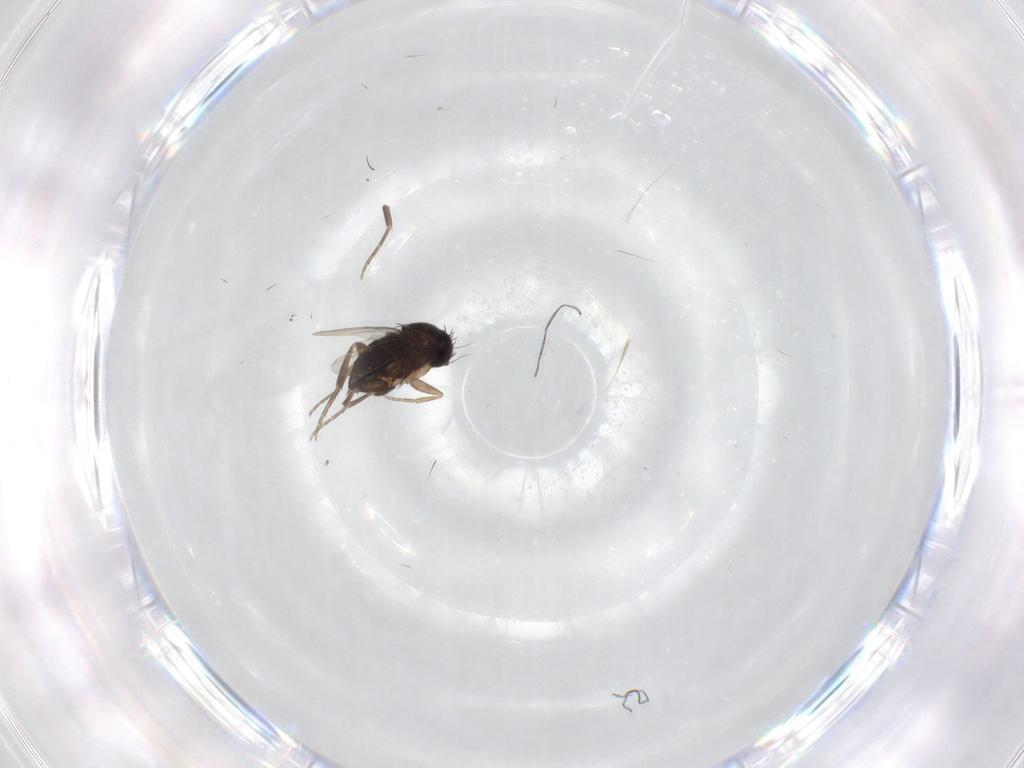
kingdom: Animalia
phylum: Arthropoda
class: Insecta
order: Diptera
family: Phoridae
